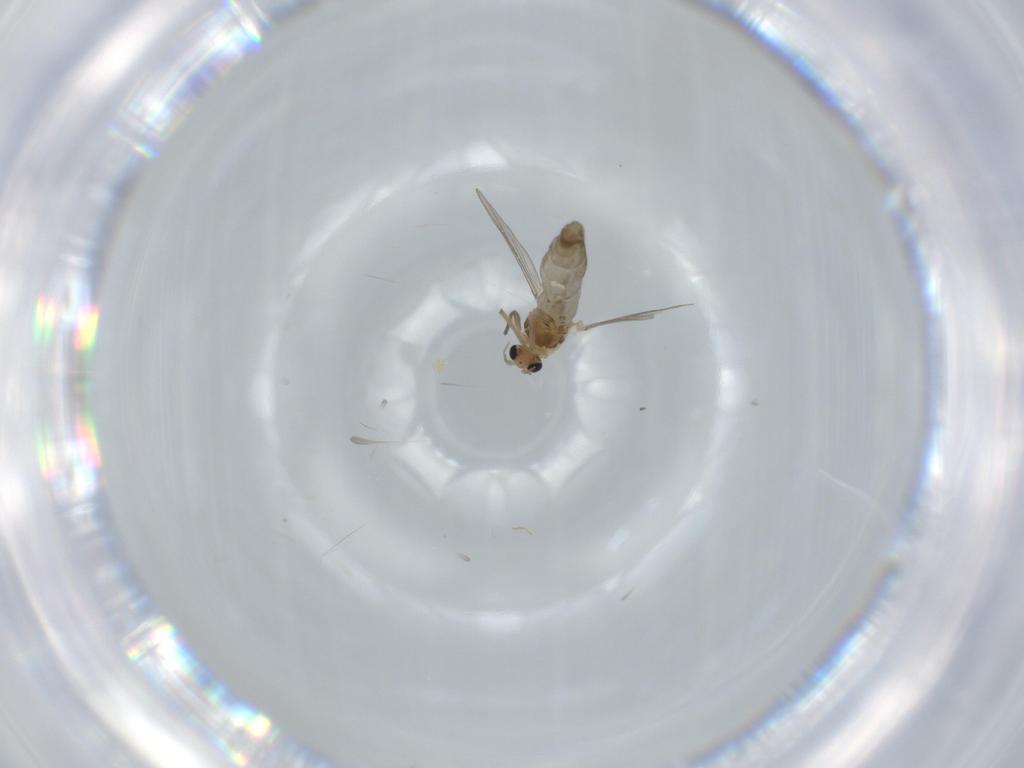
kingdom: Animalia
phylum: Arthropoda
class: Insecta
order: Diptera
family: Chironomidae
